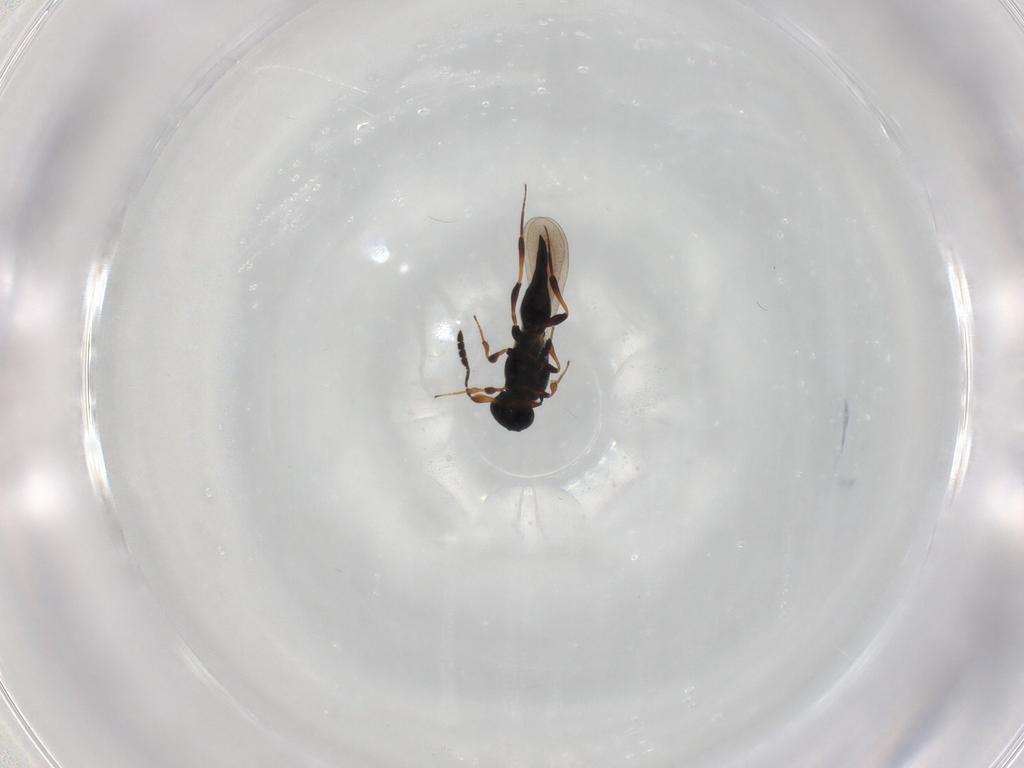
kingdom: Animalia
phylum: Arthropoda
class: Insecta
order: Hymenoptera
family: Platygastridae
